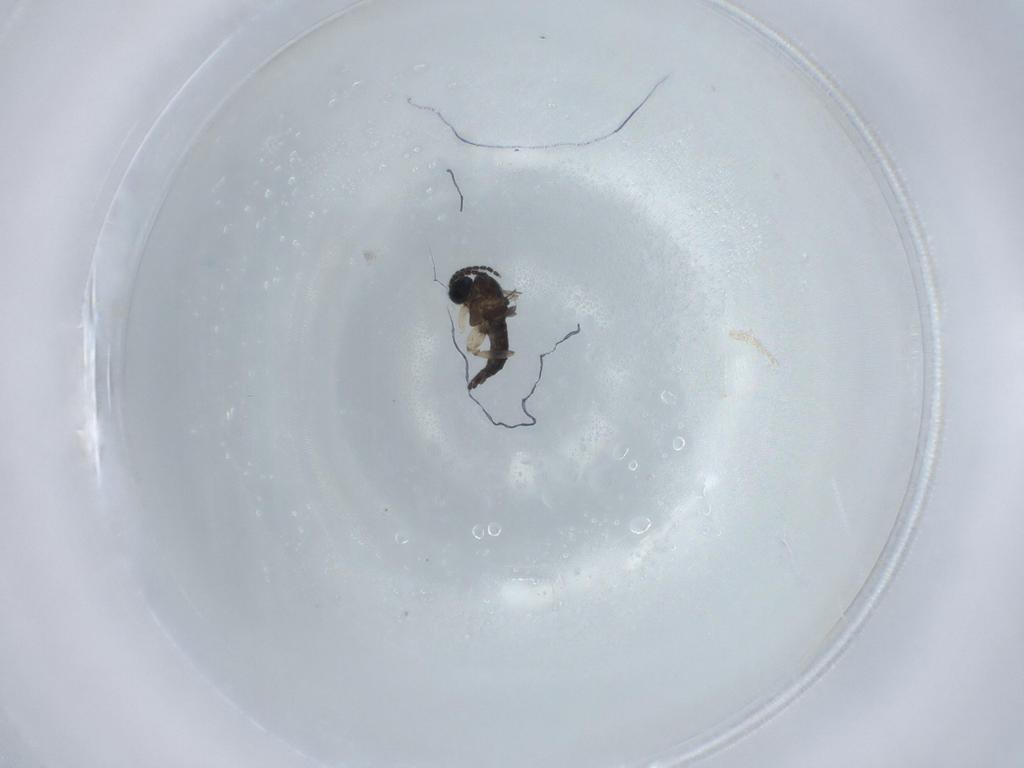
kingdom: Animalia
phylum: Arthropoda
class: Insecta
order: Diptera
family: Sciaridae
